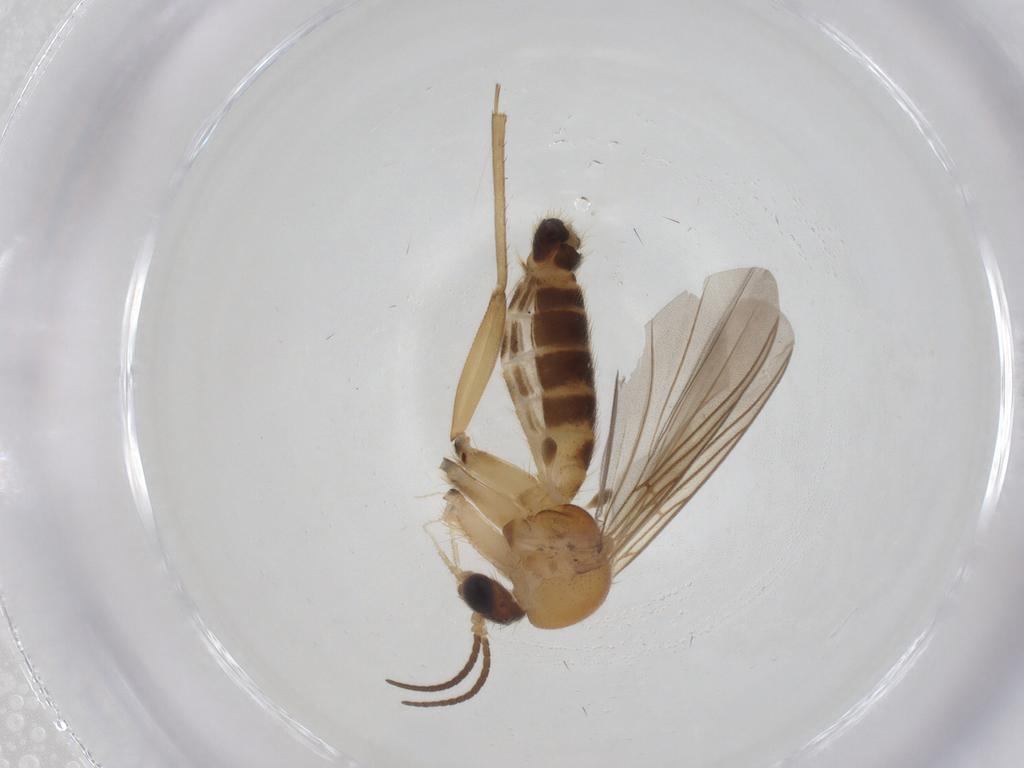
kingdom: Animalia
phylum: Arthropoda
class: Insecta
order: Diptera
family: Mycetophilidae
